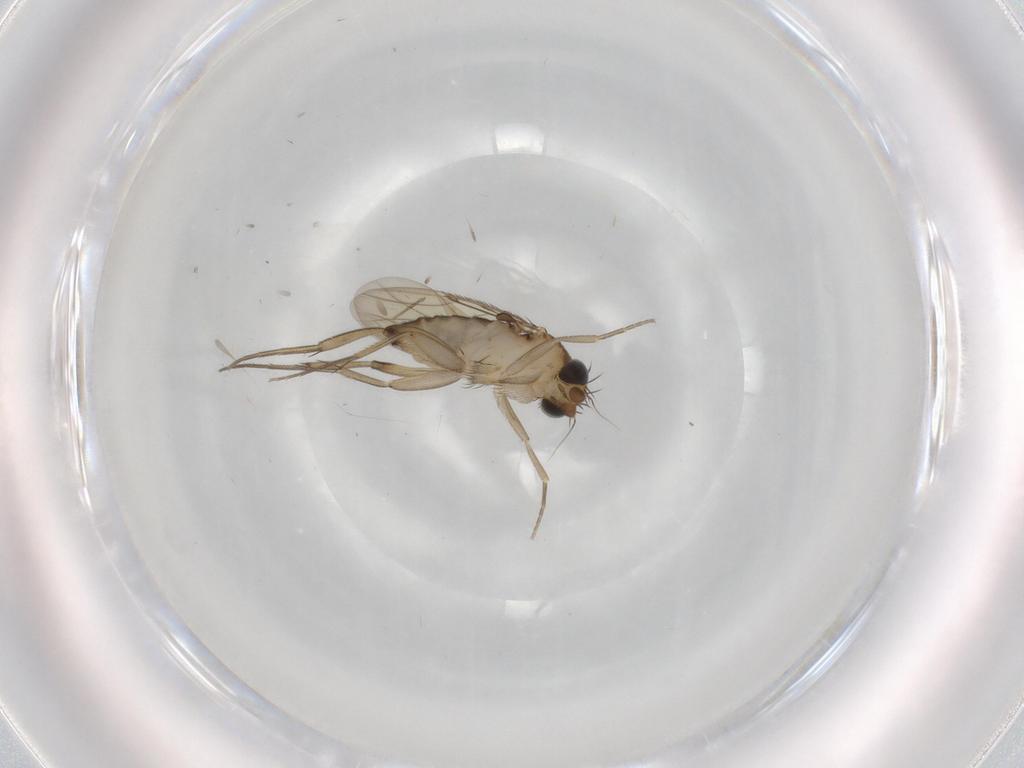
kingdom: Animalia
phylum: Arthropoda
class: Insecta
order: Diptera
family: Phoridae
